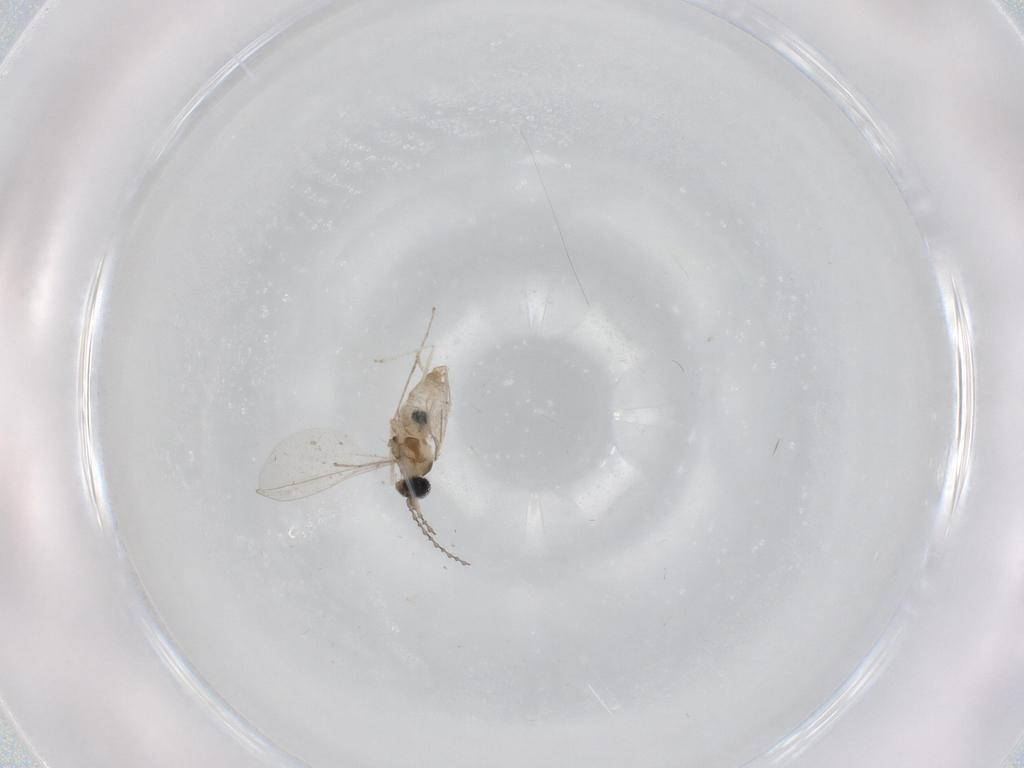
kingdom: Animalia
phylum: Arthropoda
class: Insecta
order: Diptera
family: Cecidomyiidae
